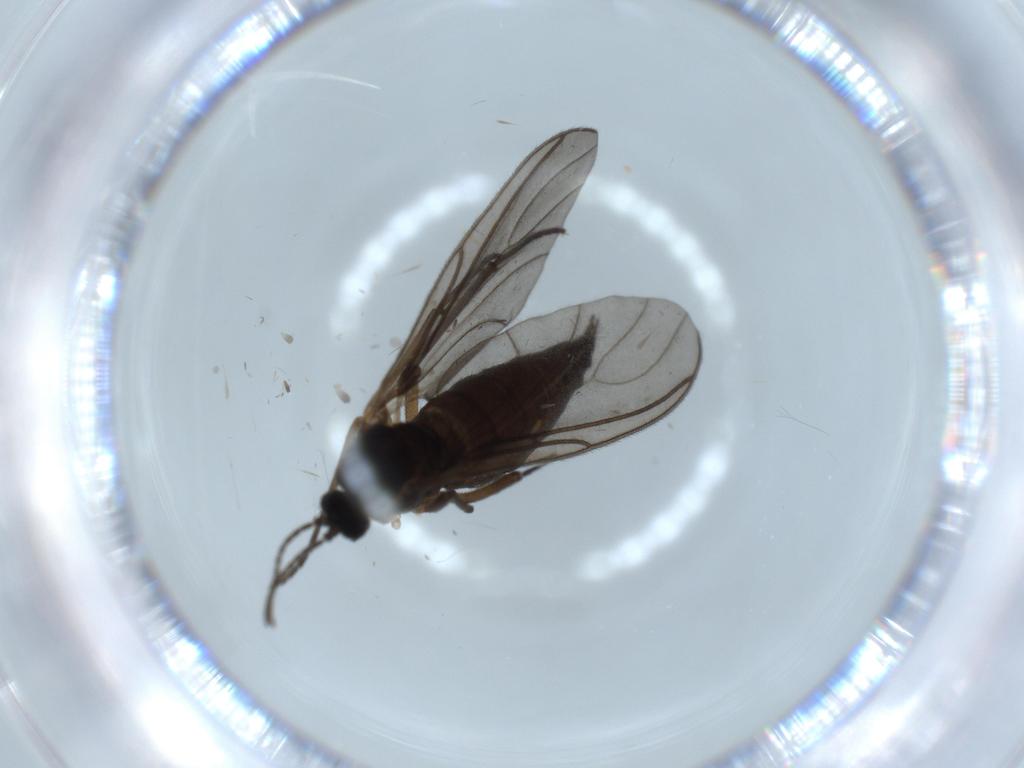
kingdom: Animalia
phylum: Arthropoda
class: Insecta
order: Diptera
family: Sciaridae
